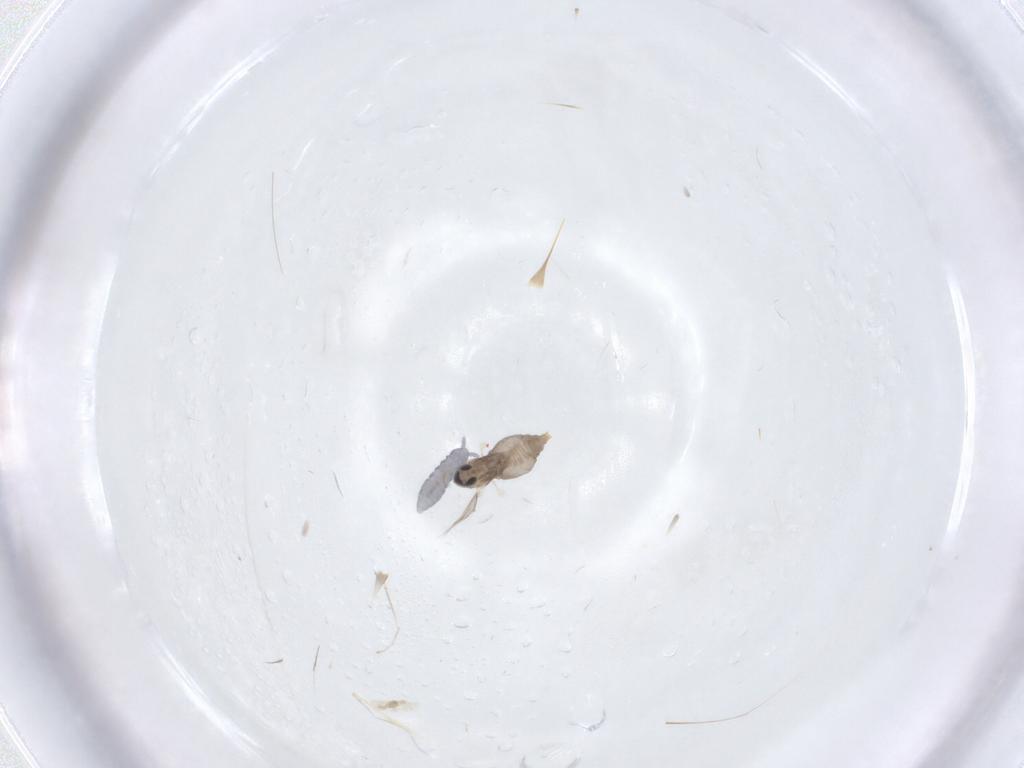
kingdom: Animalia
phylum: Arthropoda
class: Insecta
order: Diptera
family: Cecidomyiidae
